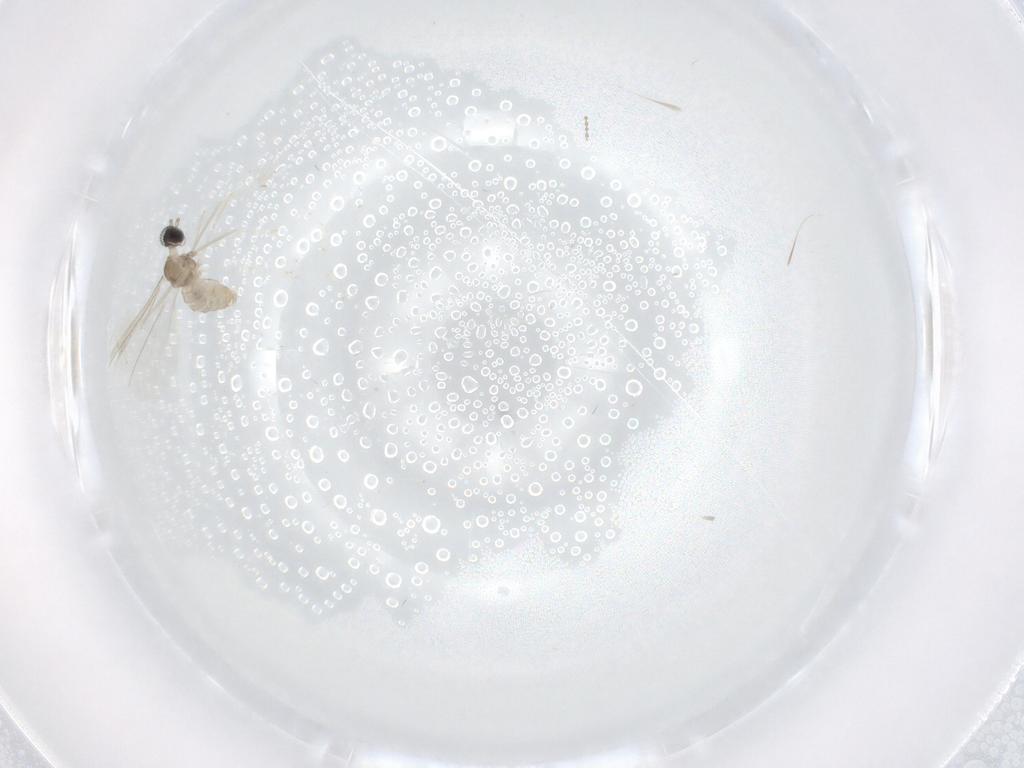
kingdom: Animalia
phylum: Arthropoda
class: Insecta
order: Diptera
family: Cecidomyiidae
